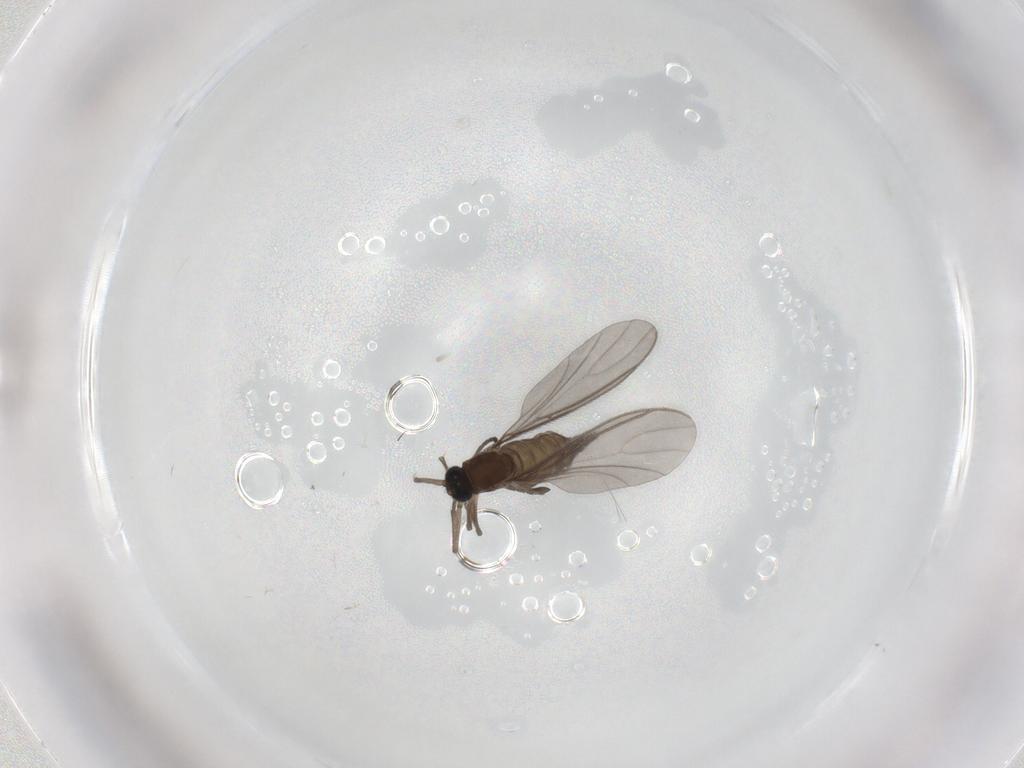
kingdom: Animalia
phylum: Arthropoda
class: Insecta
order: Diptera
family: Sciaridae
